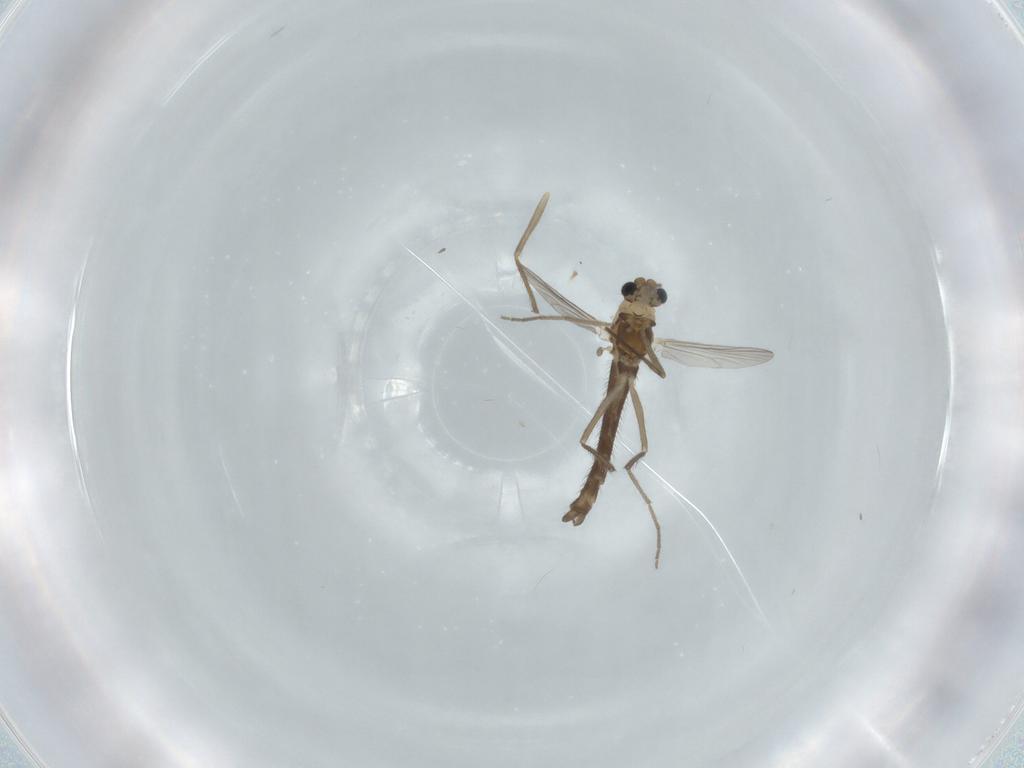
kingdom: Animalia
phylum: Arthropoda
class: Insecta
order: Diptera
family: Chironomidae
